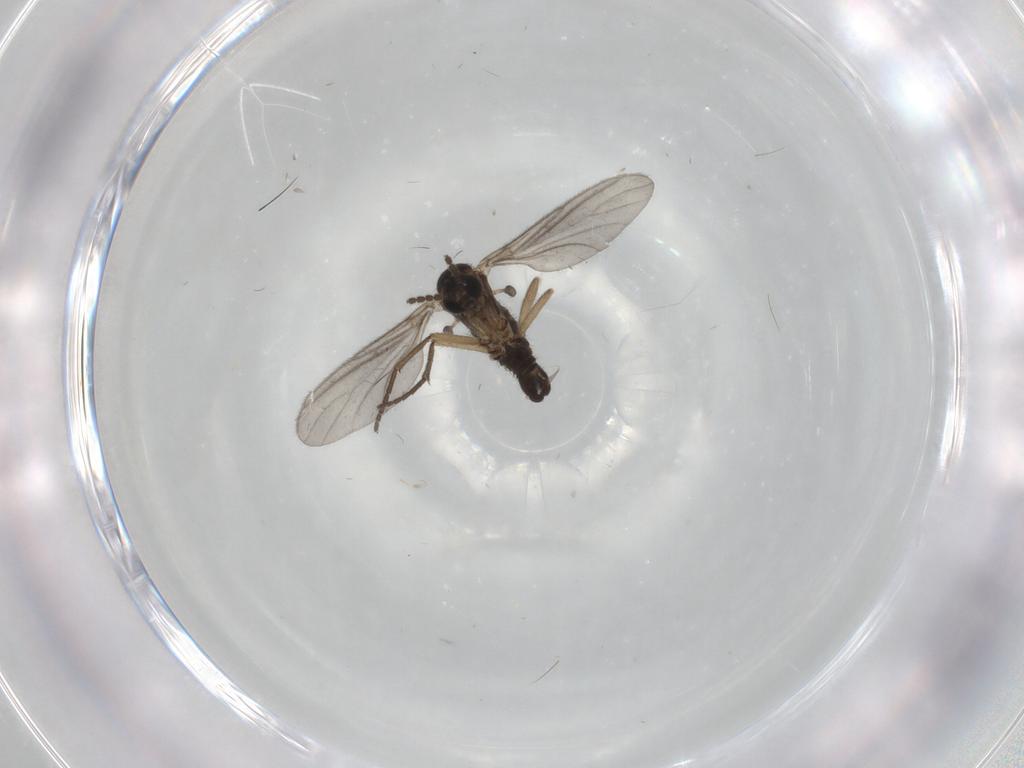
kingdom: Animalia
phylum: Arthropoda
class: Insecta
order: Diptera
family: Sciaridae
